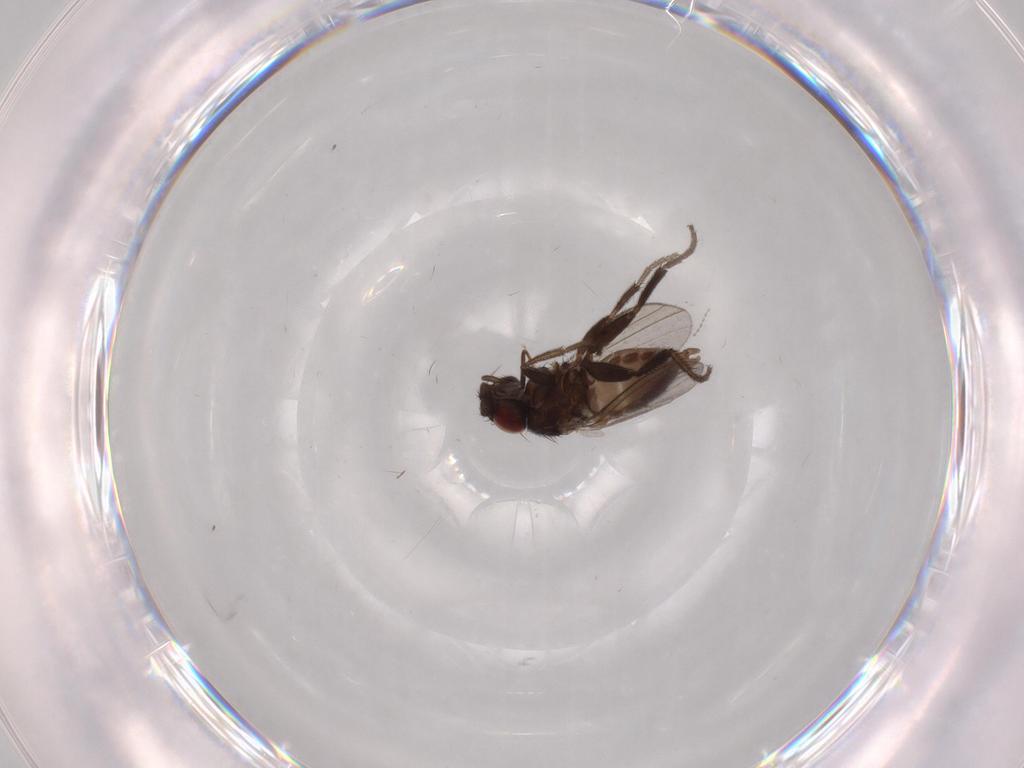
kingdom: Animalia
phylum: Arthropoda
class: Insecta
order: Diptera
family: Milichiidae
